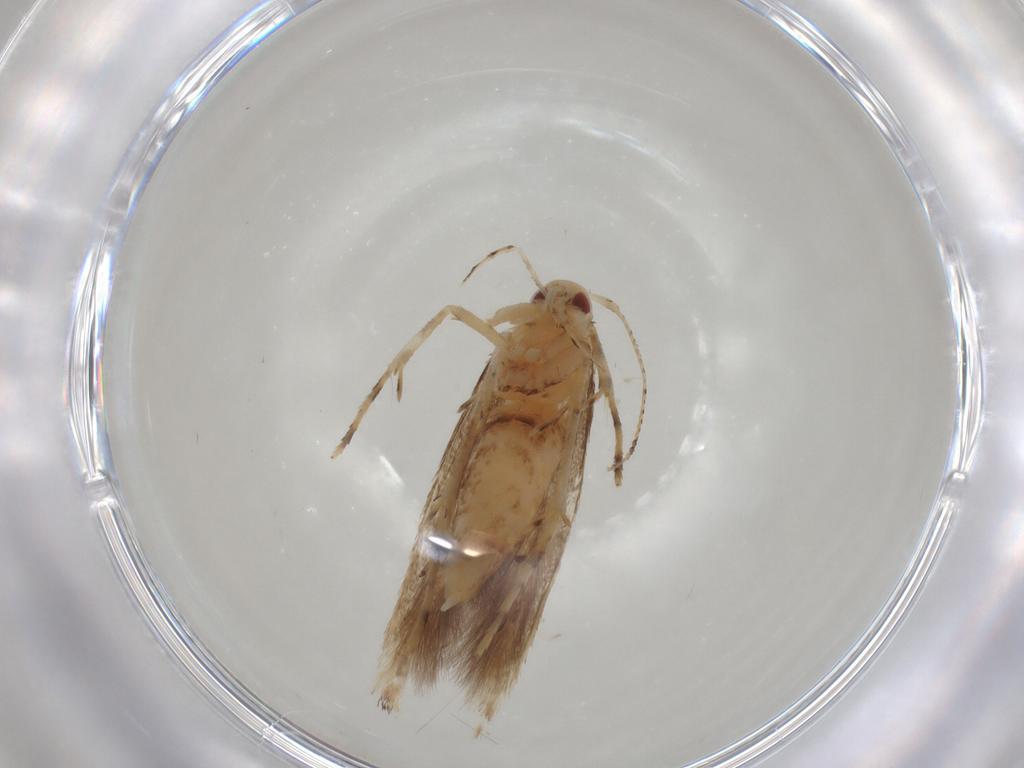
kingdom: Animalia
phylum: Arthropoda
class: Insecta
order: Lepidoptera
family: Cosmopterigidae
